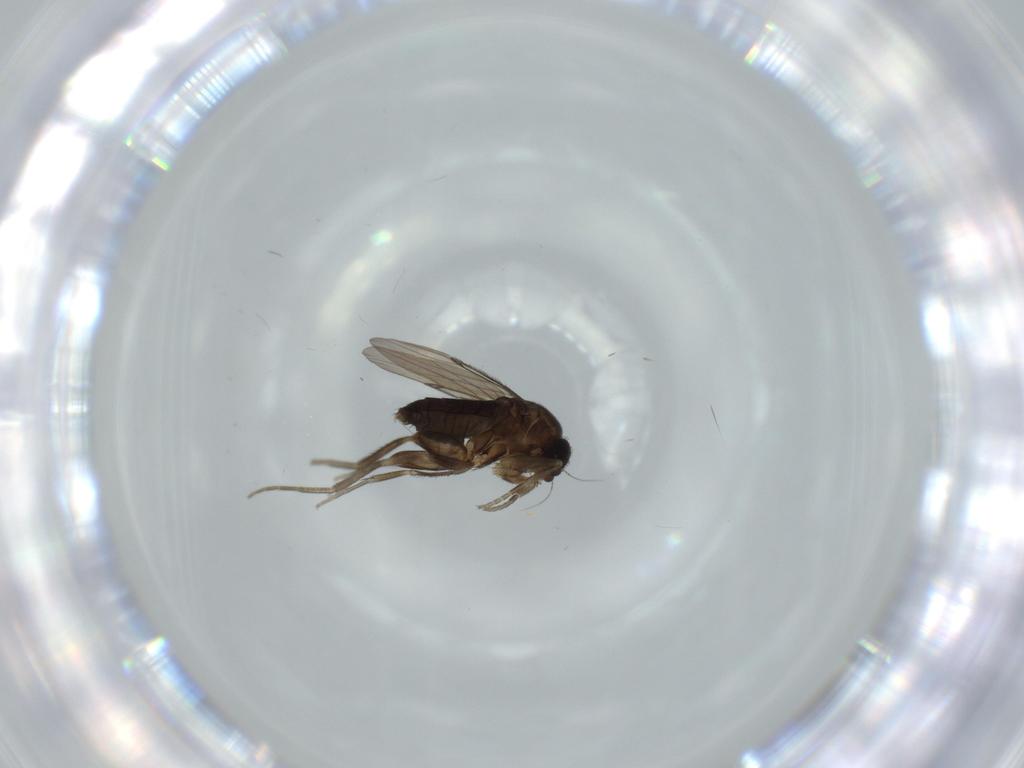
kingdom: Animalia
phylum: Arthropoda
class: Insecta
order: Diptera
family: Phoridae
